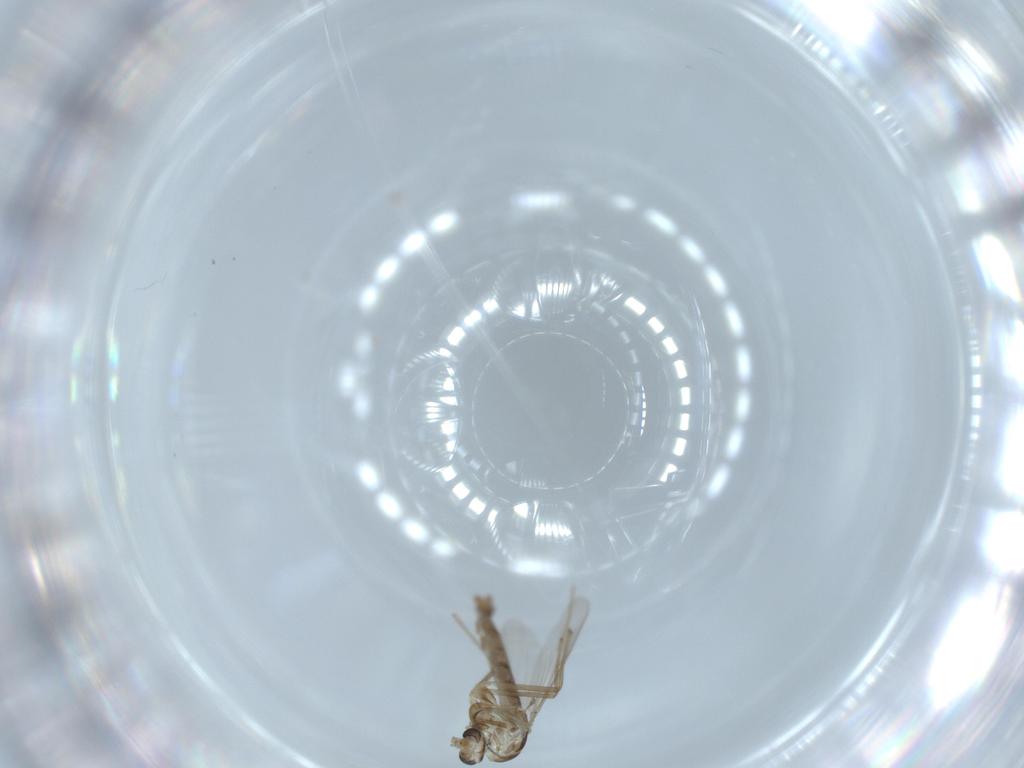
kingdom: Animalia
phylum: Arthropoda
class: Insecta
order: Diptera
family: Chironomidae
